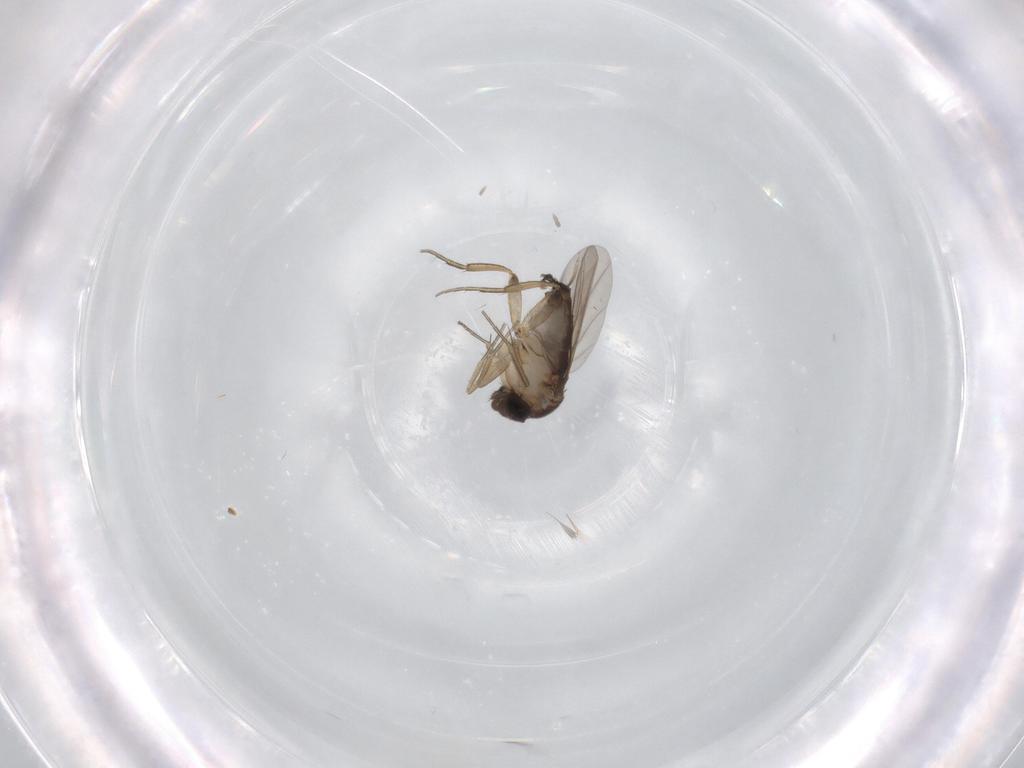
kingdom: Animalia
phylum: Arthropoda
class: Insecta
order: Diptera
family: Phoridae
